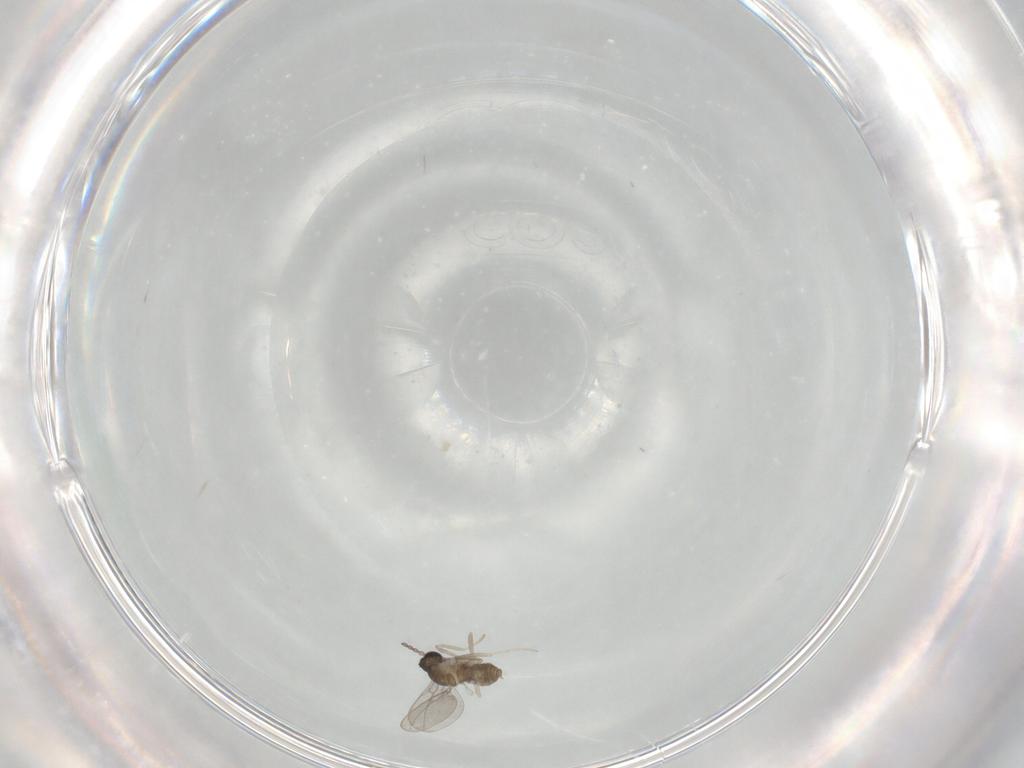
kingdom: Animalia
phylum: Arthropoda
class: Insecta
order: Diptera
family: Cecidomyiidae
